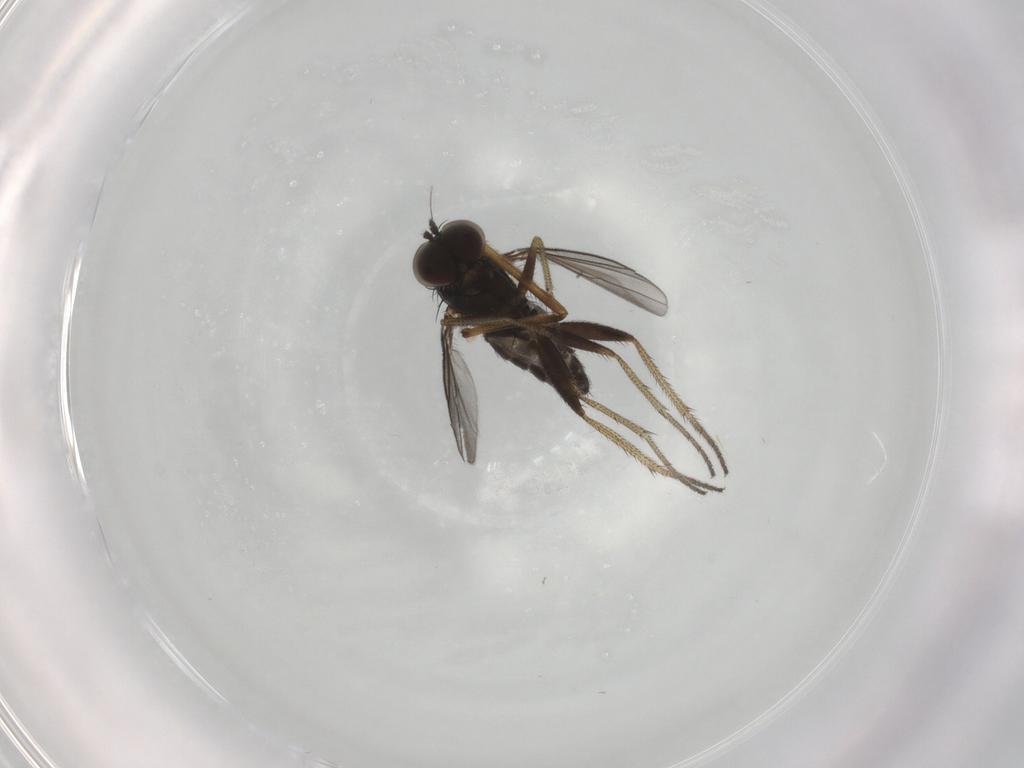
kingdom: Animalia
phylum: Arthropoda
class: Insecta
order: Diptera
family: Dolichopodidae
